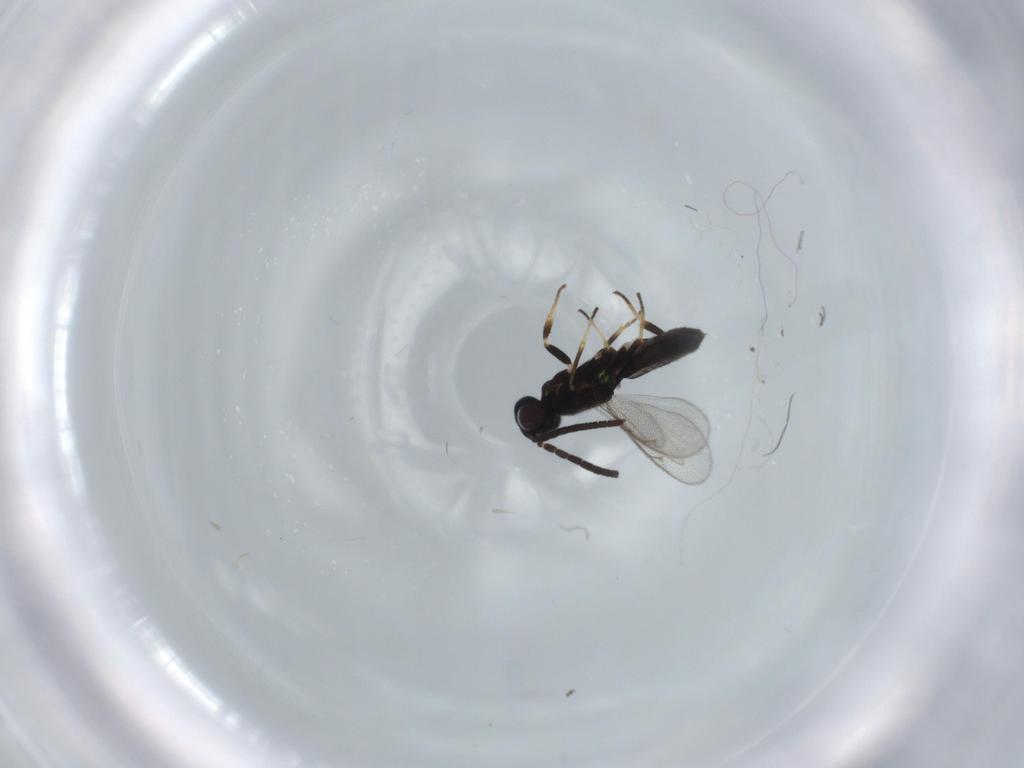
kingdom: Animalia
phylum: Arthropoda
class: Insecta
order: Hymenoptera
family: Eupelmidae
